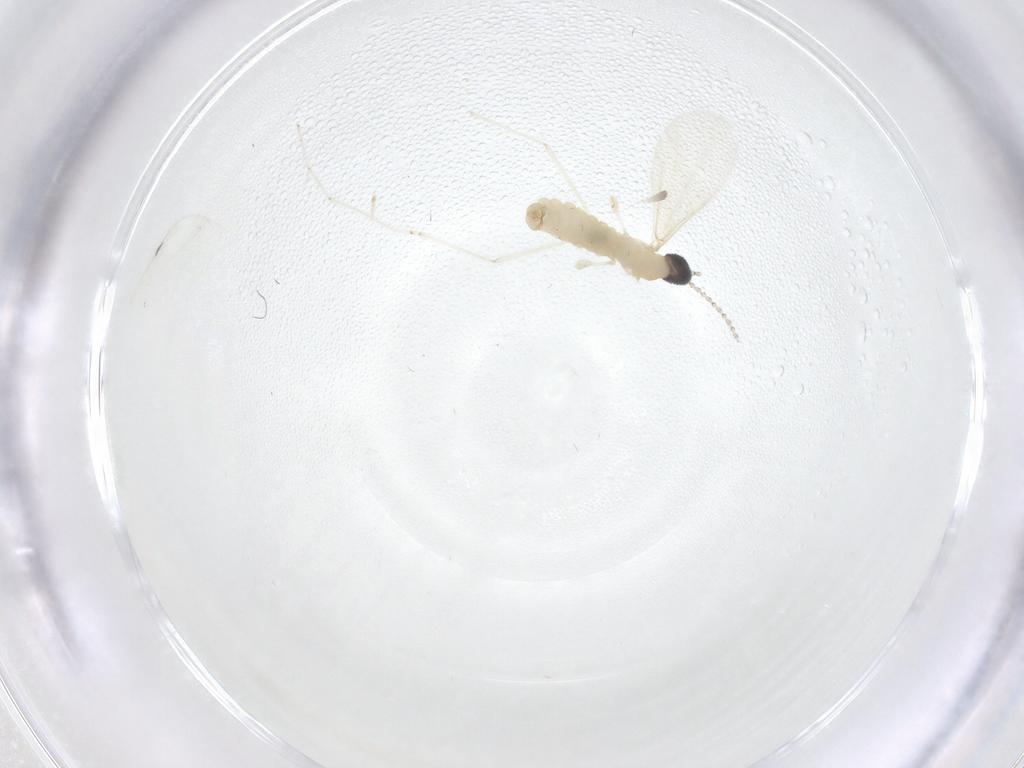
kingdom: Animalia
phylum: Arthropoda
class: Insecta
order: Diptera
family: Cecidomyiidae
